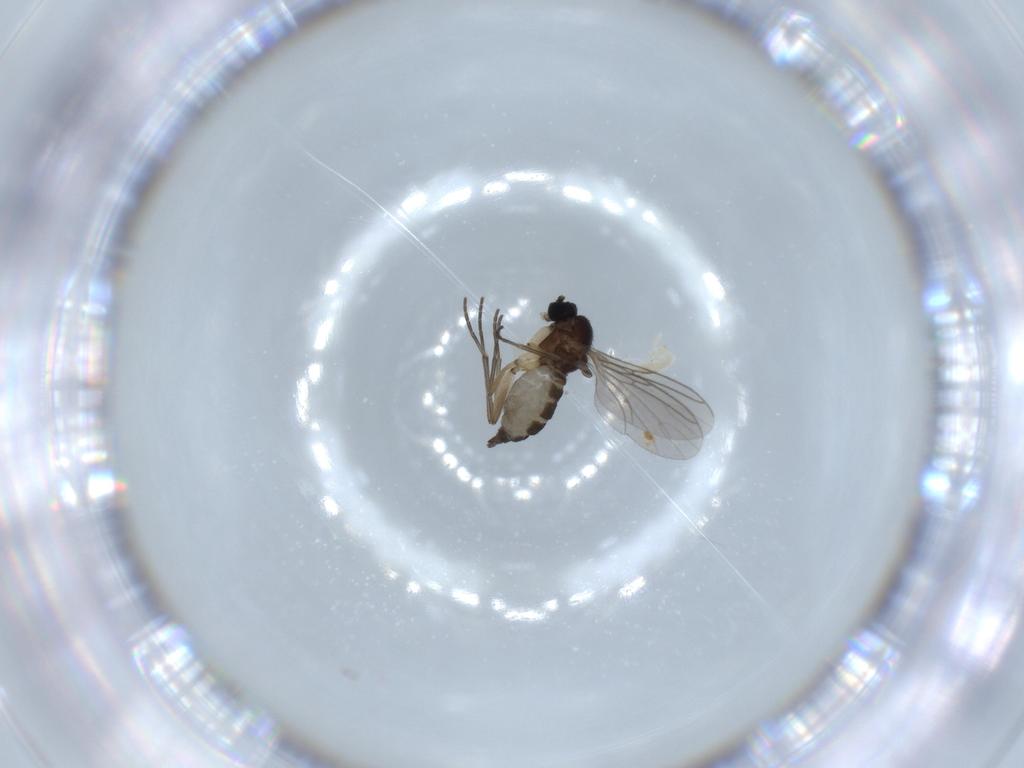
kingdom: Animalia
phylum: Arthropoda
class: Insecta
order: Diptera
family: Sciaridae
